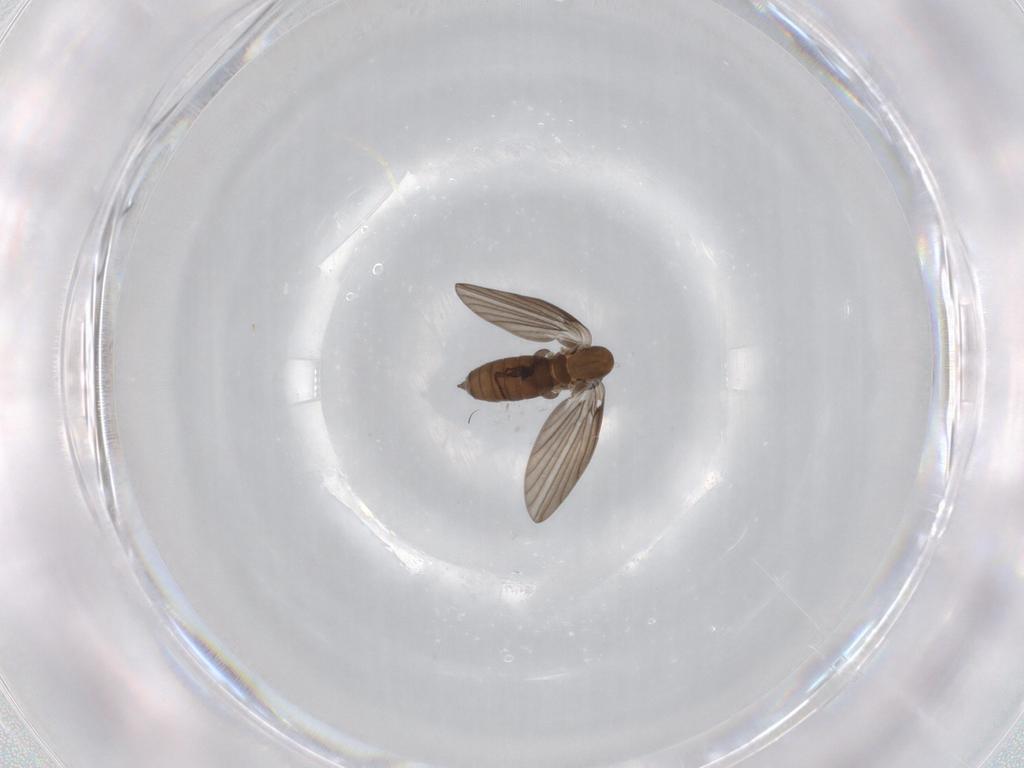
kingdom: Animalia
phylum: Arthropoda
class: Insecta
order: Diptera
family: Psychodidae
